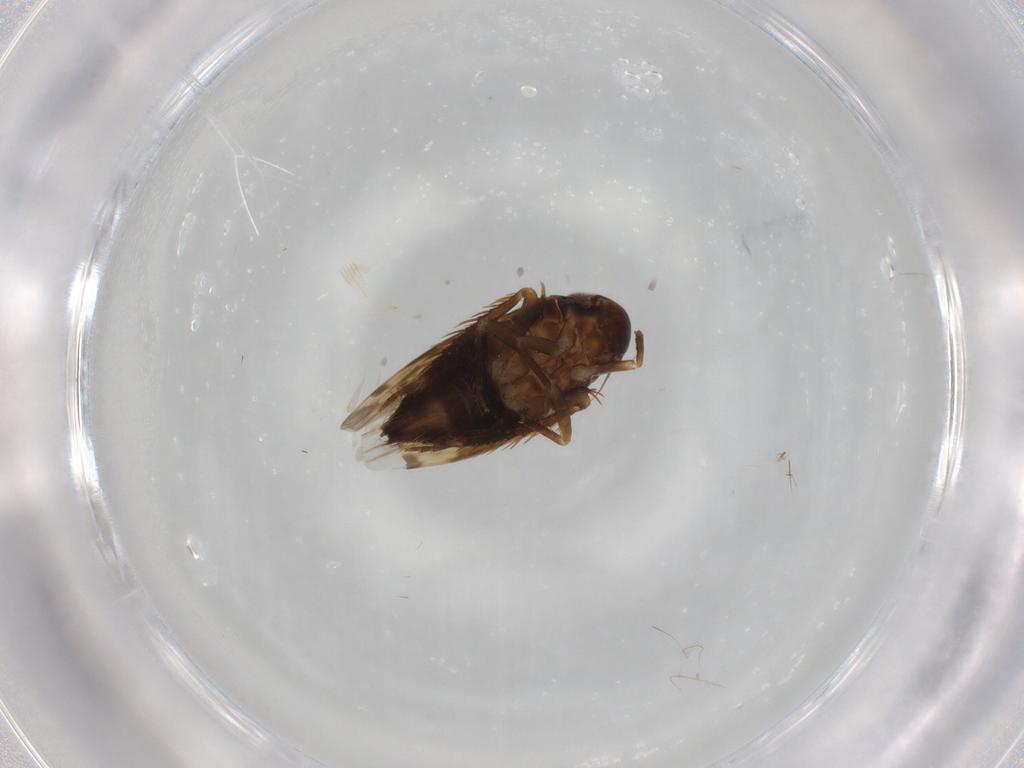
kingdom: Animalia
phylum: Arthropoda
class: Insecta
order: Hemiptera
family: Cicadellidae
